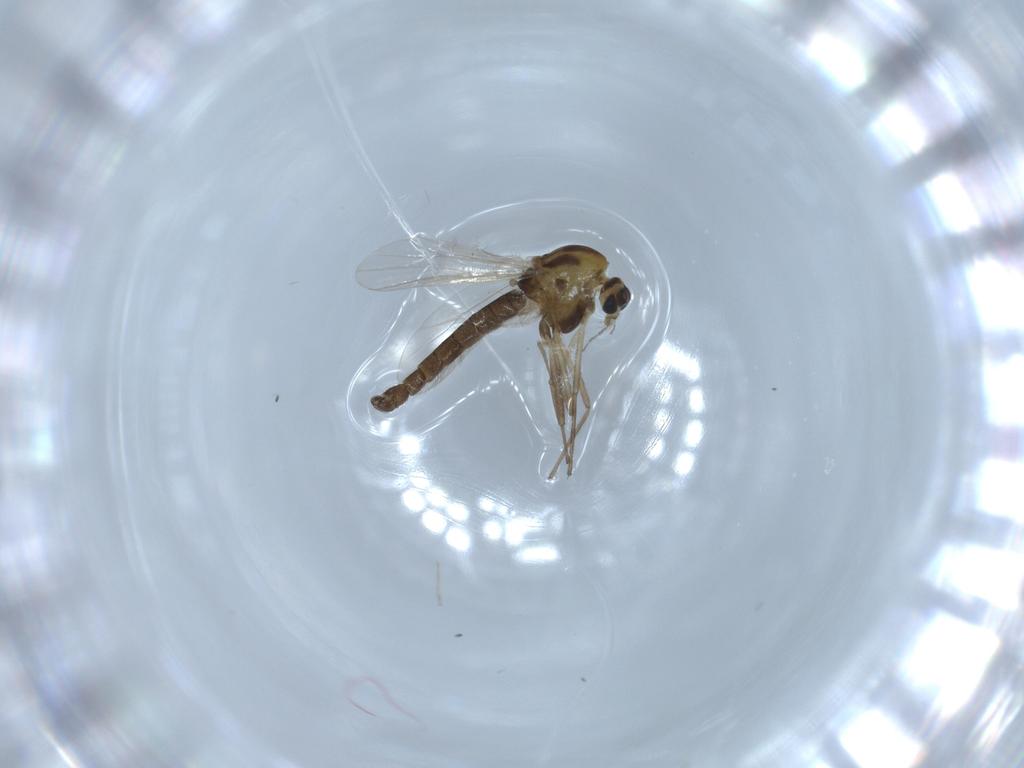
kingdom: Animalia
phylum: Arthropoda
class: Insecta
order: Diptera
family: Chironomidae
